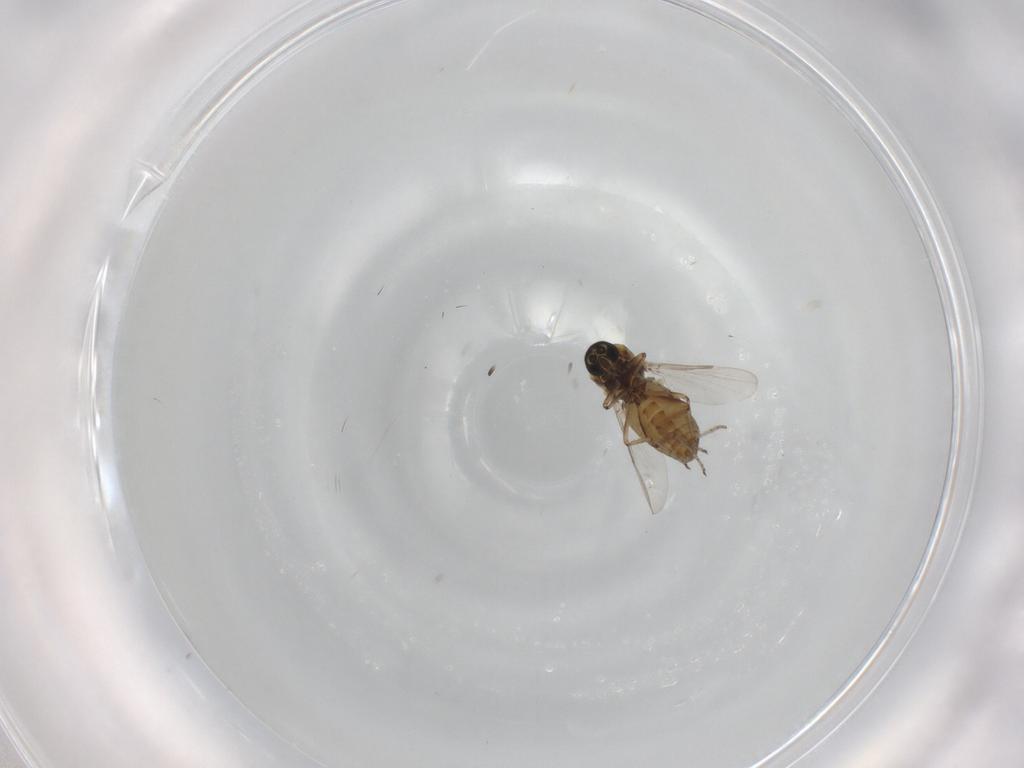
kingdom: Animalia
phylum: Arthropoda
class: Insecta
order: Diptera
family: Ceratopogonidae
